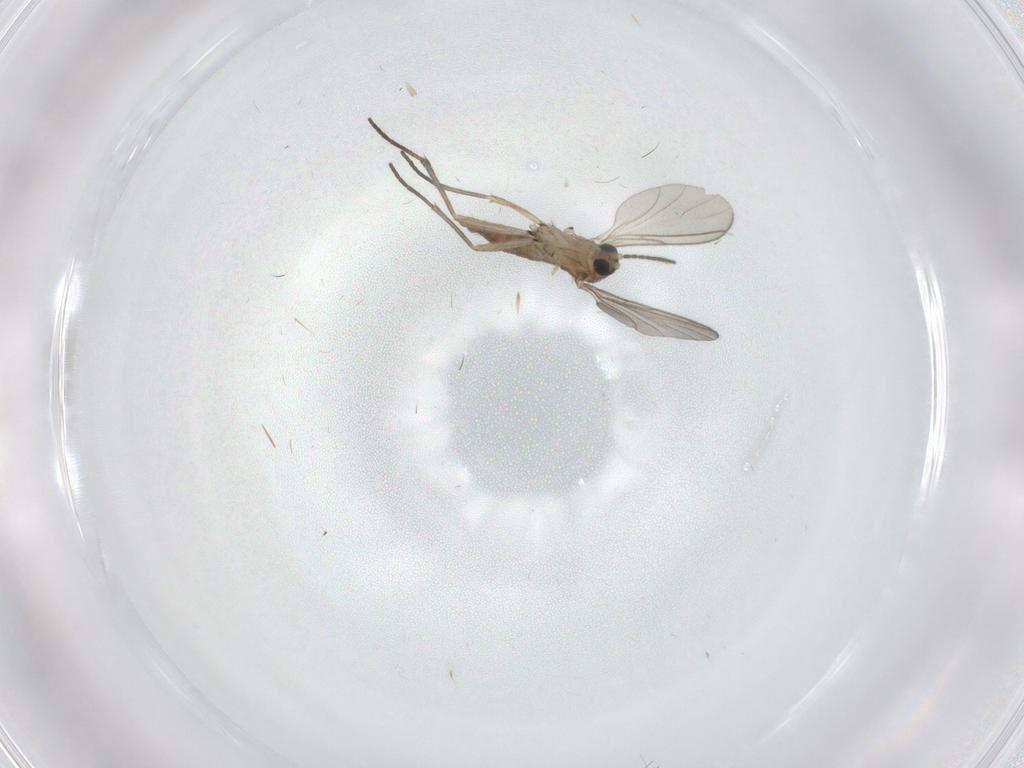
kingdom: Animalia
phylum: Arthropoda
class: Insecta
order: Diptera
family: Sciaridae
